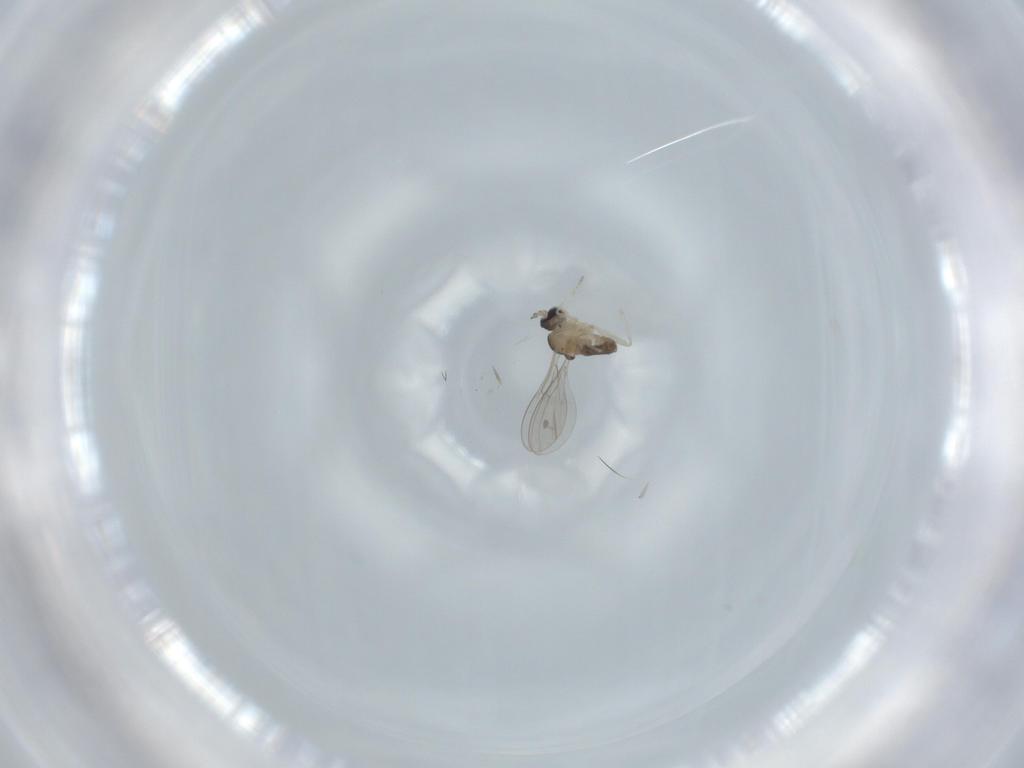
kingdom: Animalia
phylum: Arthropoda
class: Insecta
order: Diptera
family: Cecidomyiidae
